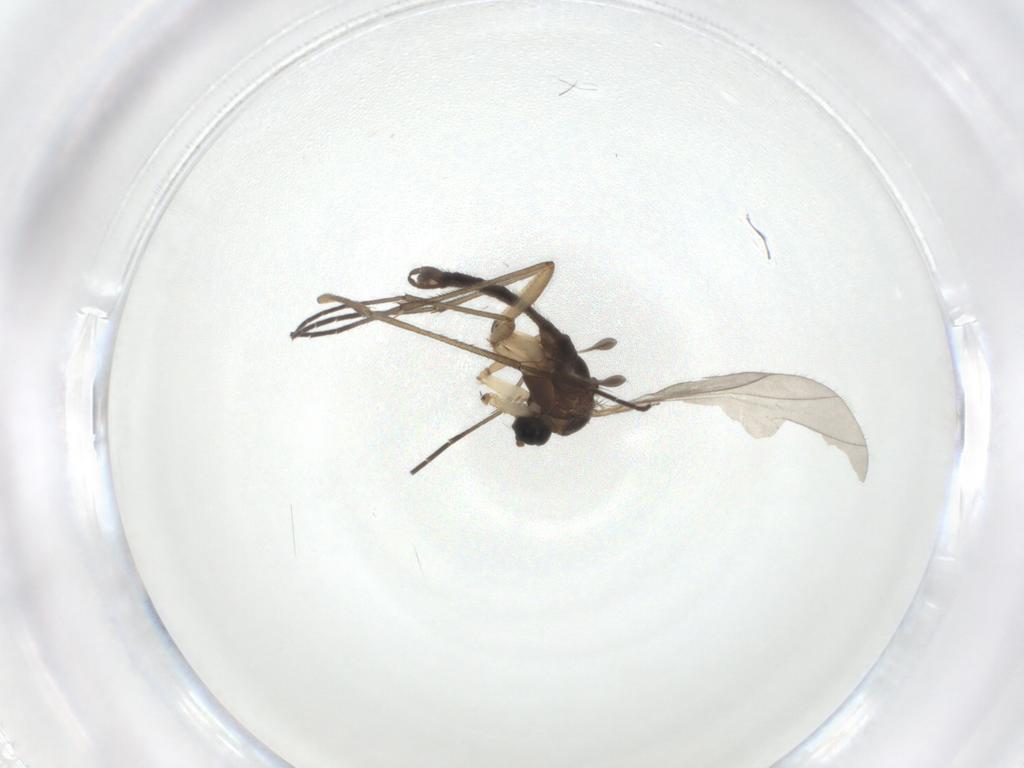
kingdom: Animalia
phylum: Arthropoda
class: Insecta
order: Diptera
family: Sciaridae
